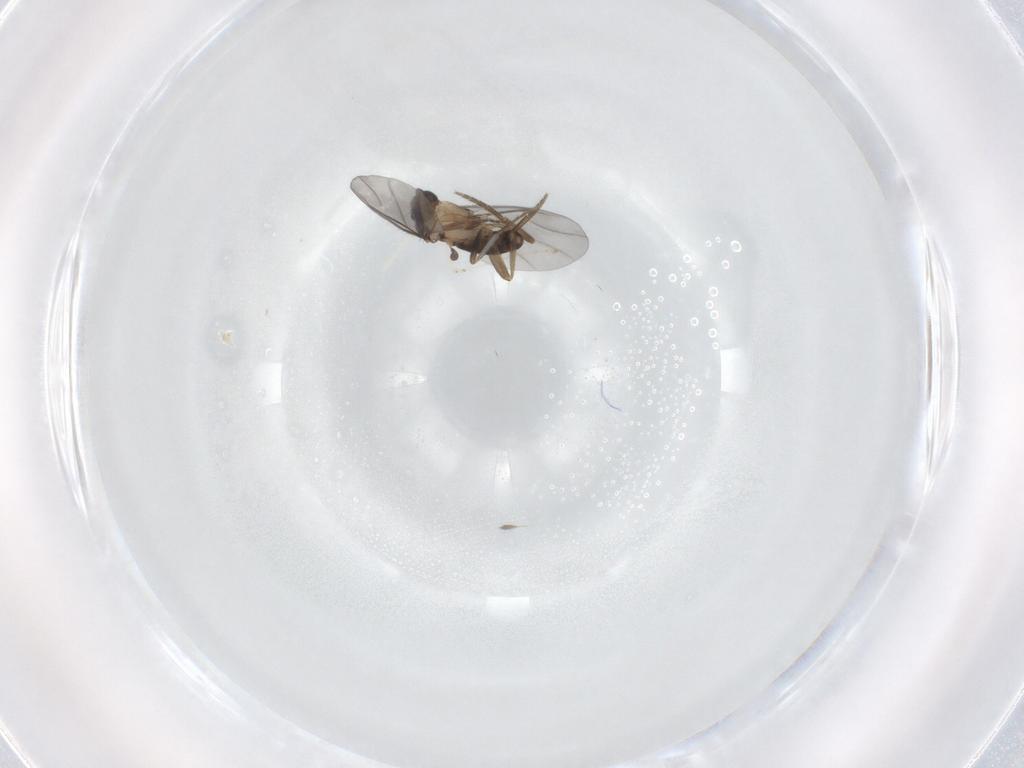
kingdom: Animalia
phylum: Arthropoda
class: Insecta
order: Diptera
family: Phoridae
